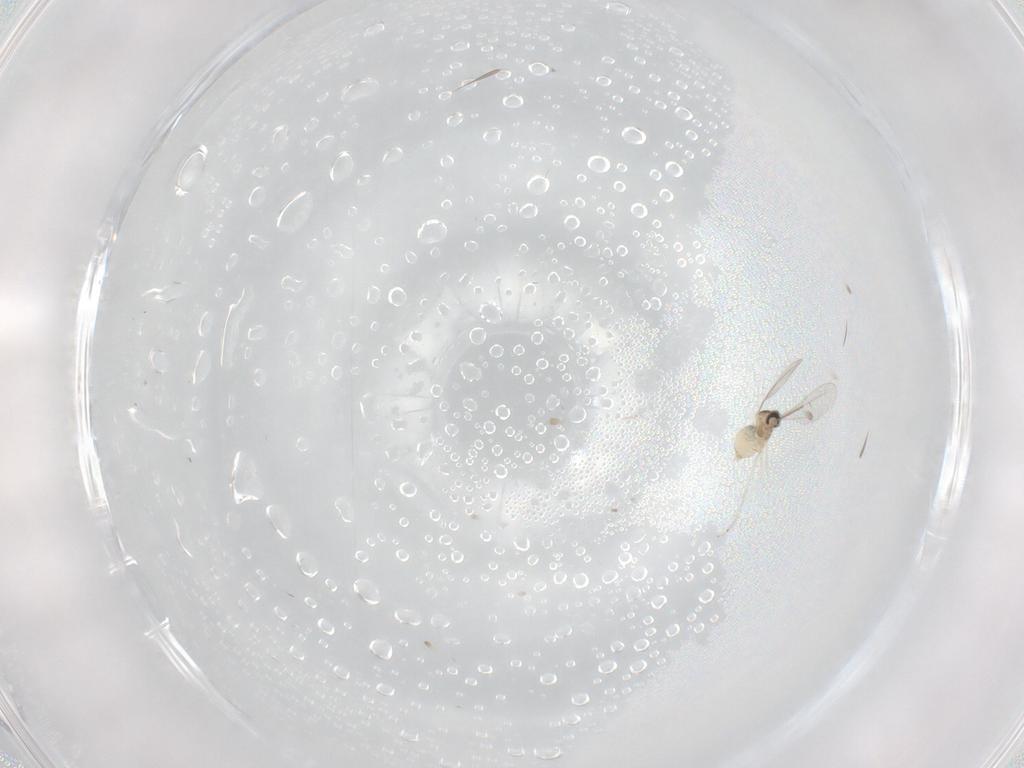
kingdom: Animalia
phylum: Arthropoda
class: Insecta
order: Diptera
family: Cecidomyiidae
